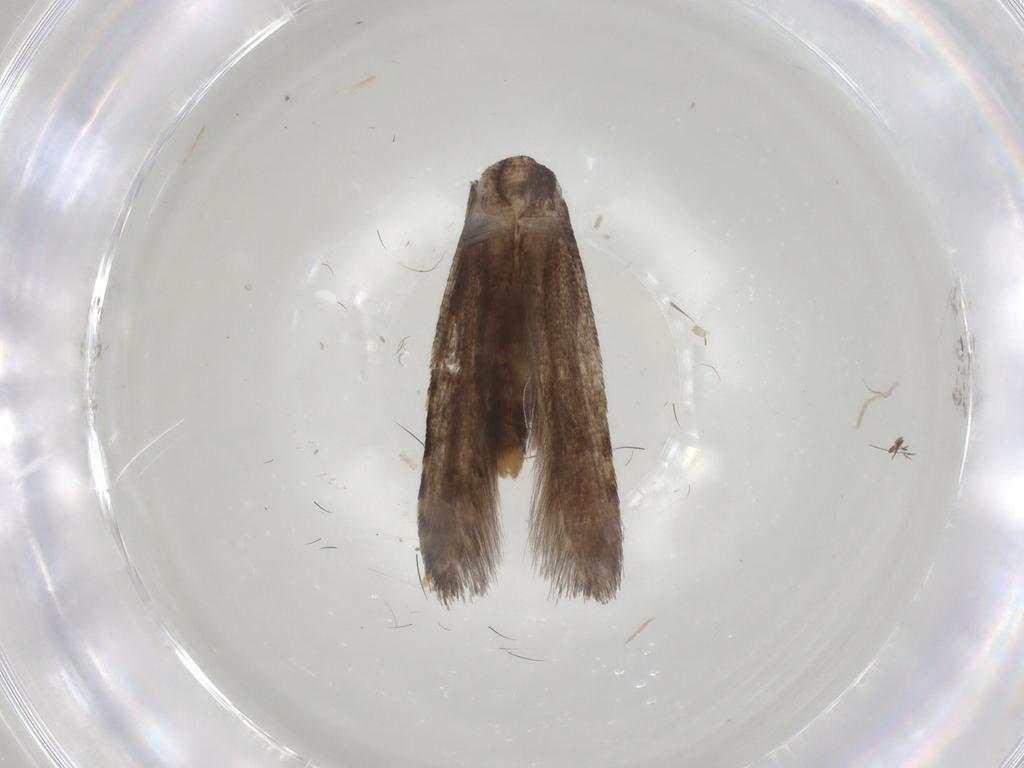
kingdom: Animalia
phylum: Arthropoda
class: Insecta
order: Lepidoptera
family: Tineidae
